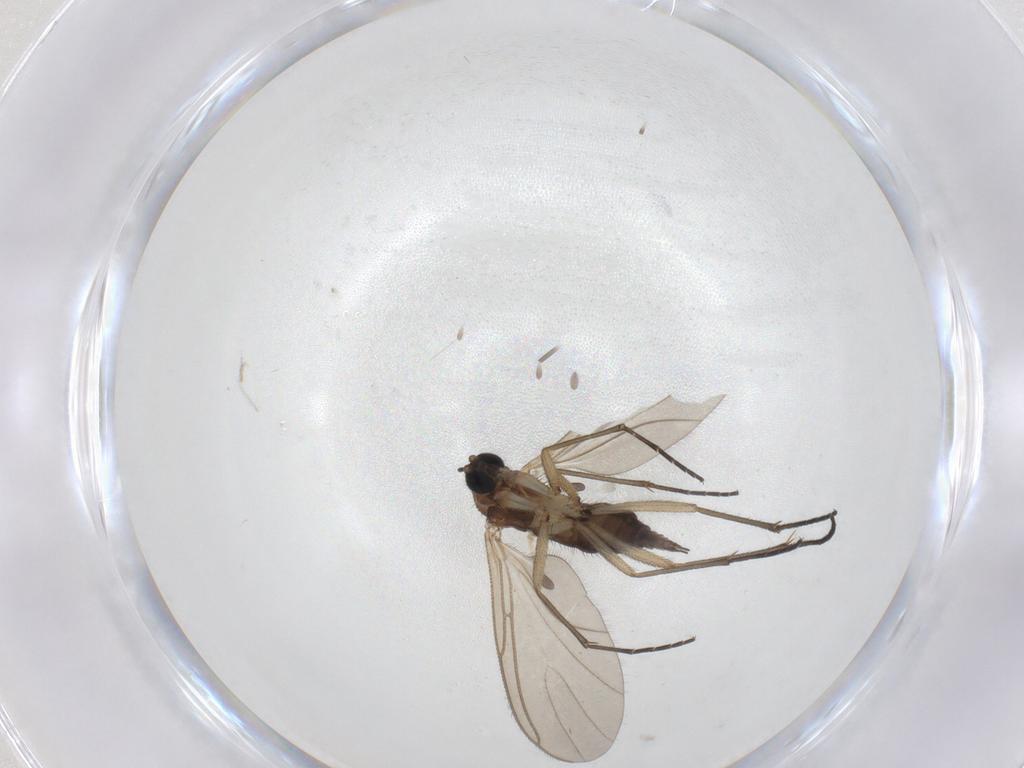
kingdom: Animalia
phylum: Arthropoda
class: Insecta
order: Diptera
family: Sciaridae
